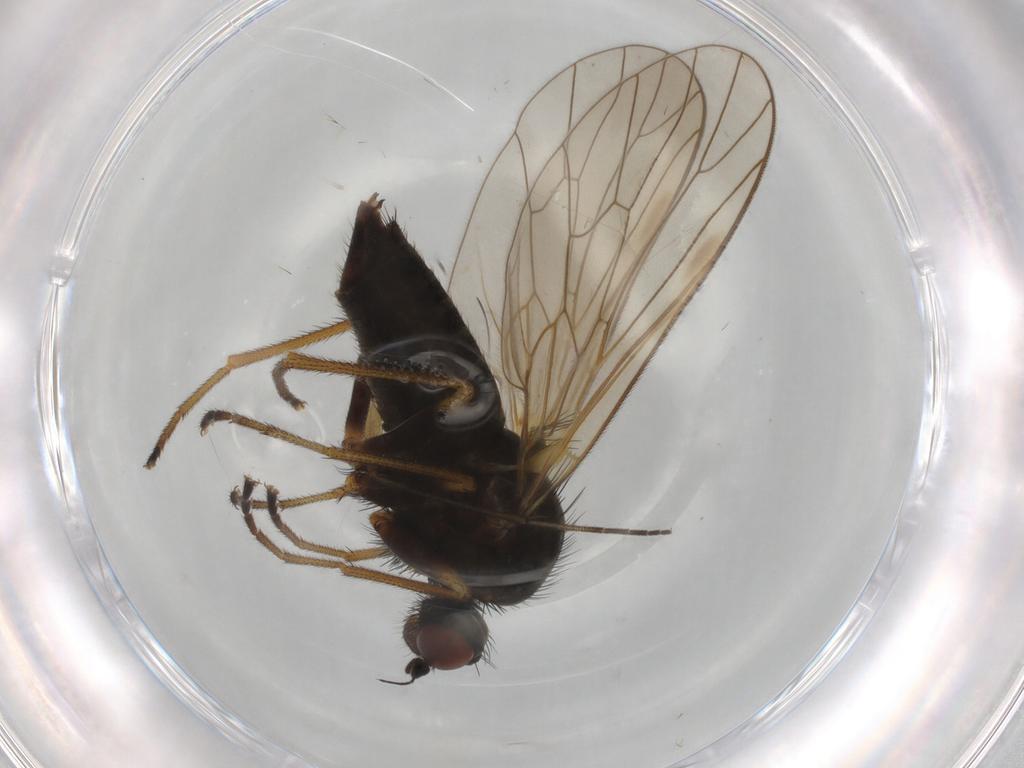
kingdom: Animalia
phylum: Arthropoda
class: Insecta
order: Diptera
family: Brachystomatidae
